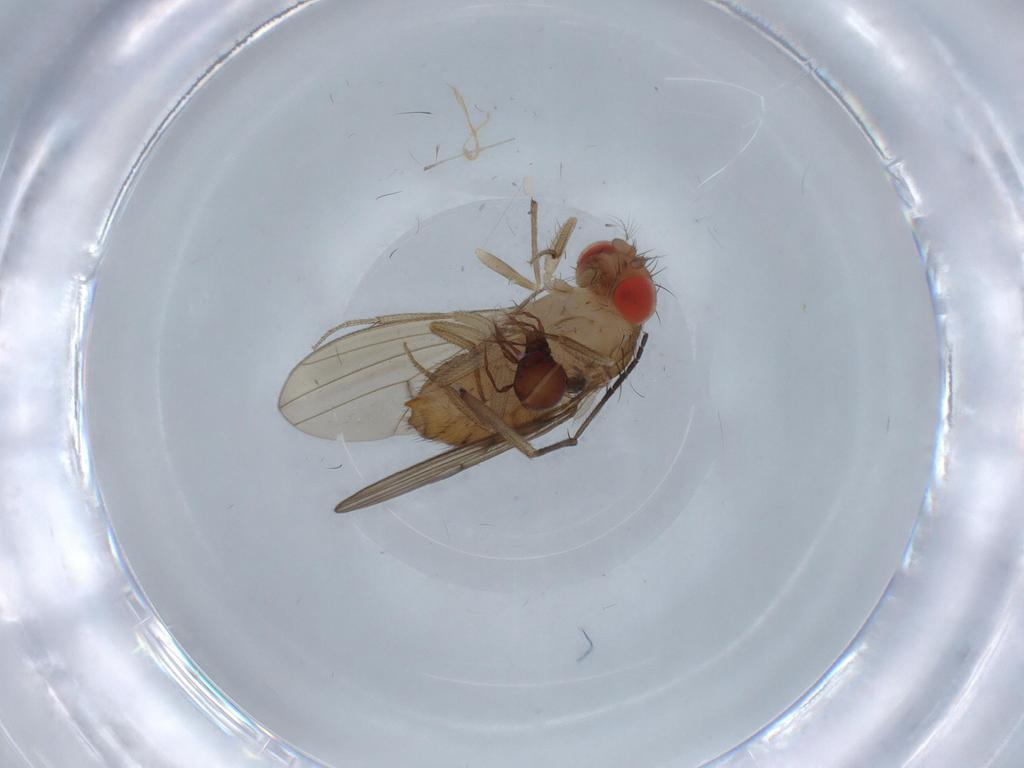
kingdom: Animalia
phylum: Arthropoda
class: Insecta
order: Diptera
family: Drosophilidae
